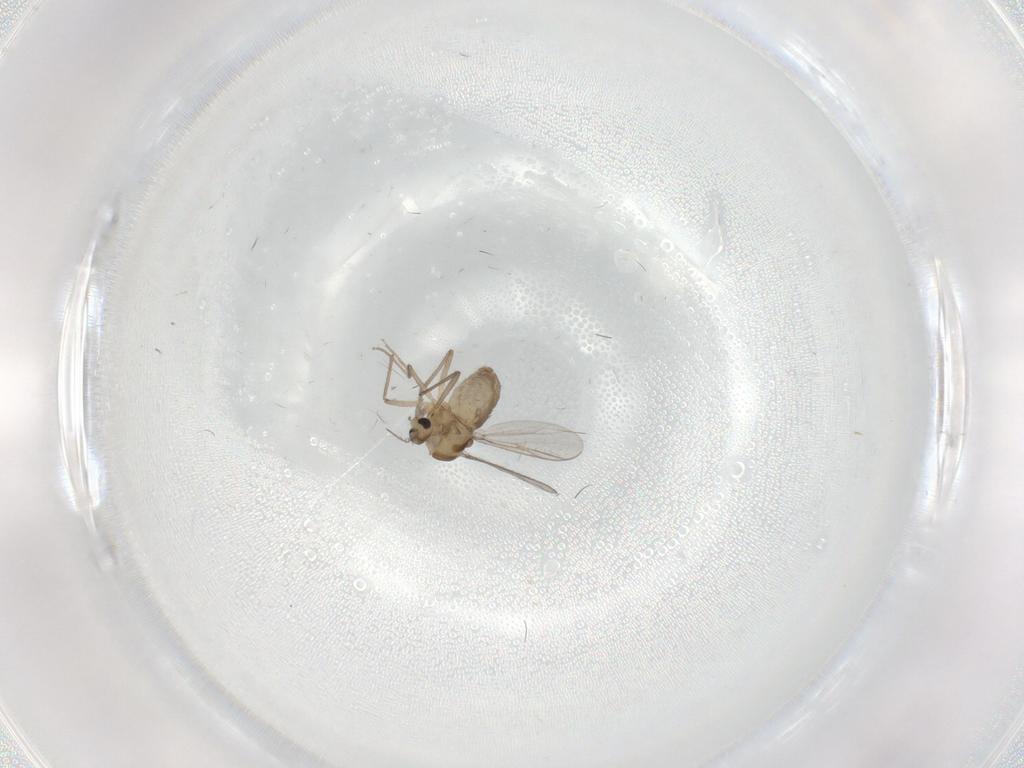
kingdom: Animalia
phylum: Arthropoda
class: Insecta
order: Diptera
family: Chironomidae
